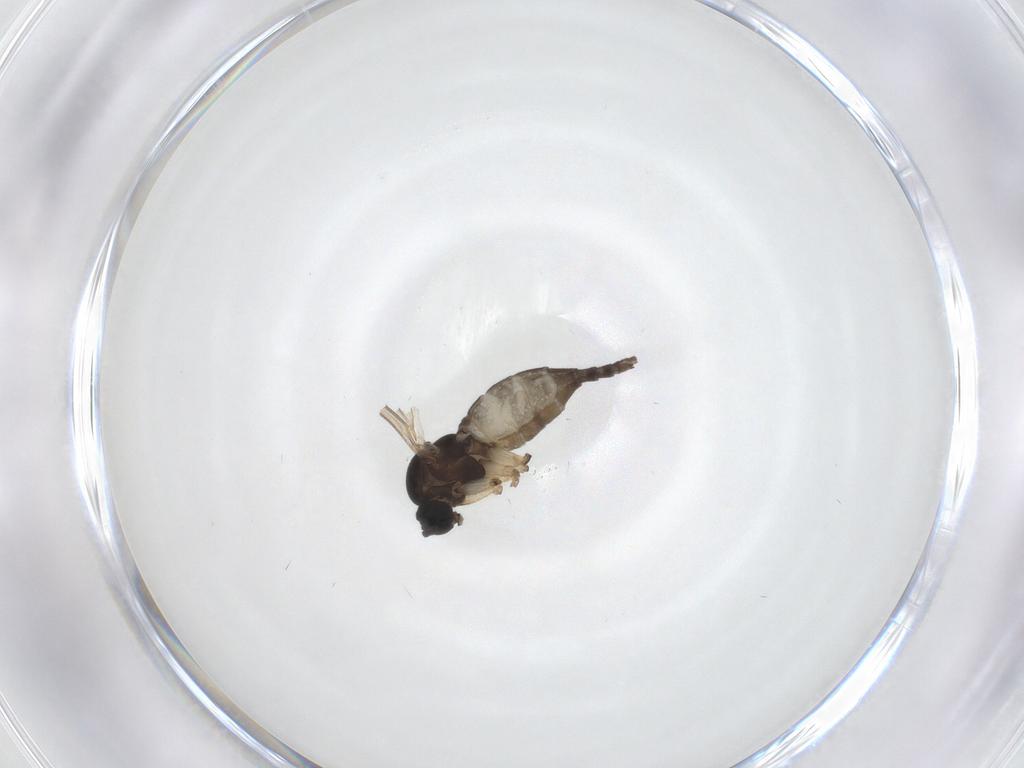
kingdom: Animalia
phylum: Arthropoda
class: Insecta
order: Diptera
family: Sciaridae
